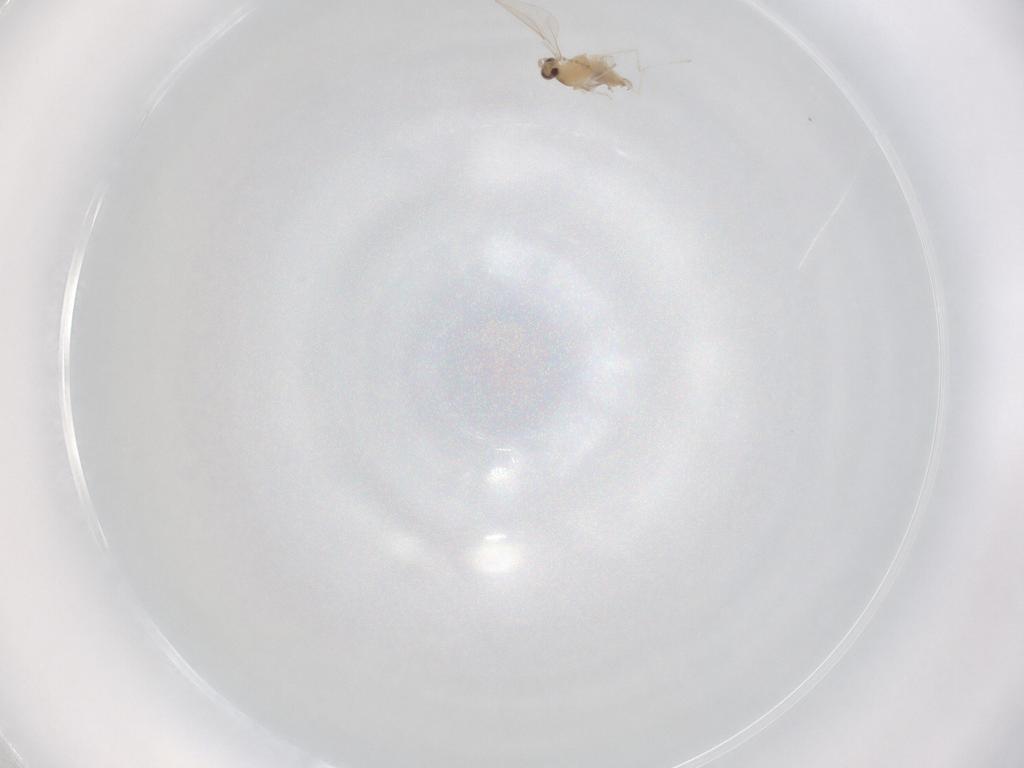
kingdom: Animalia
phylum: Arthropoda
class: Insecta
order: Diptera
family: Cecidomyiidae
